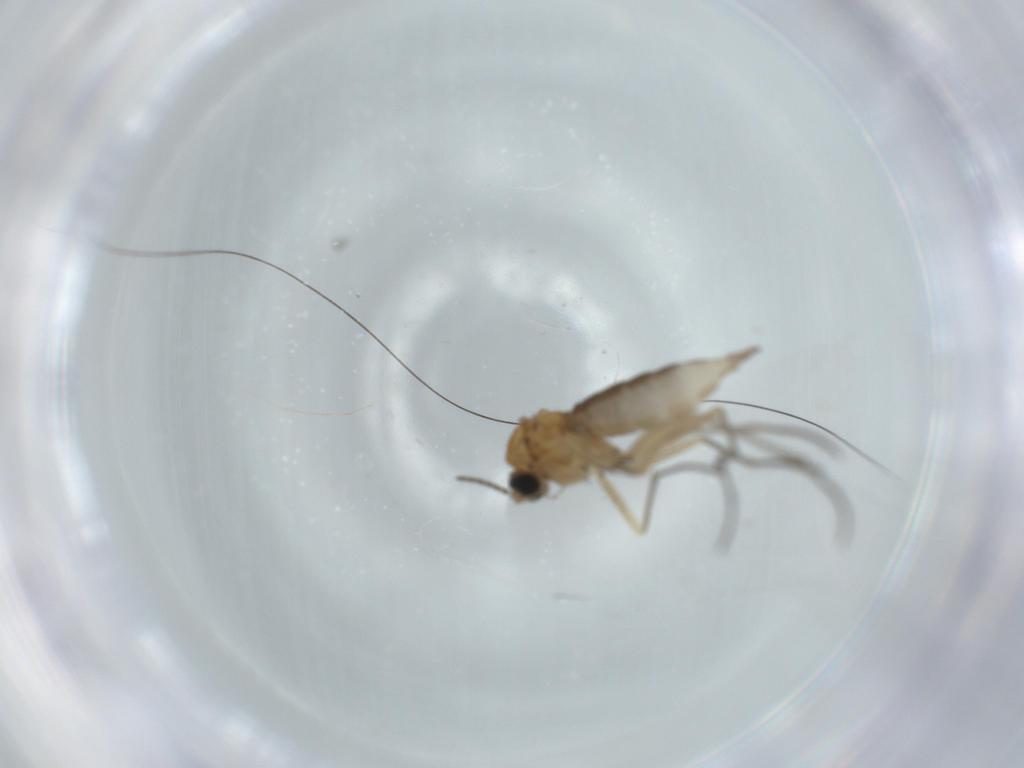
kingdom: Animalia
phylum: Arthropoda
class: Insecta
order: Diptera
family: Sciaridae
